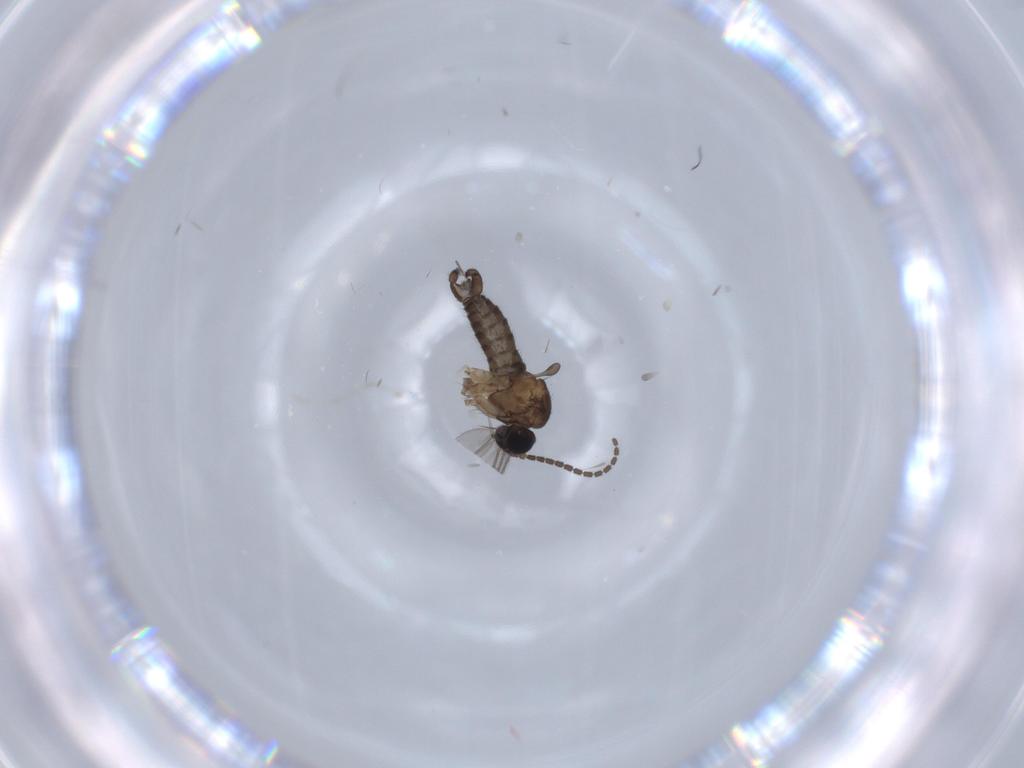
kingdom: Animalia
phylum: Arthropoda
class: Insecta
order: Diptera
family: Sciaridae
